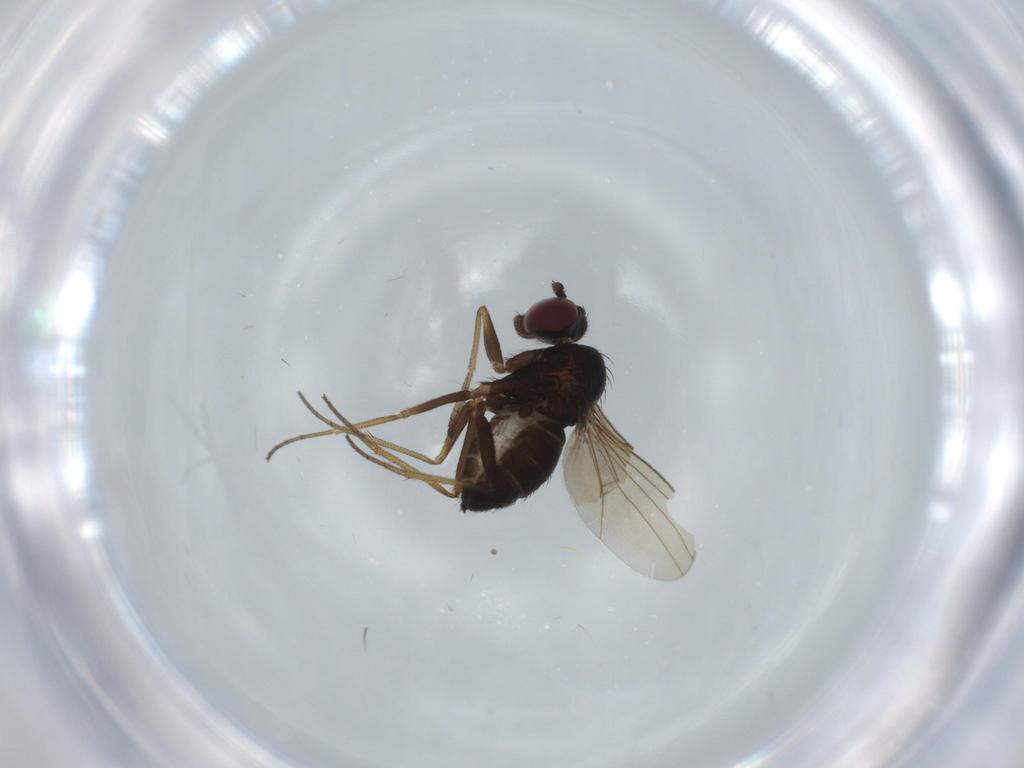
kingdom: Animalia
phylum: Arthropoda
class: Insecta
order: Diptera
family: Dolichopodidae
